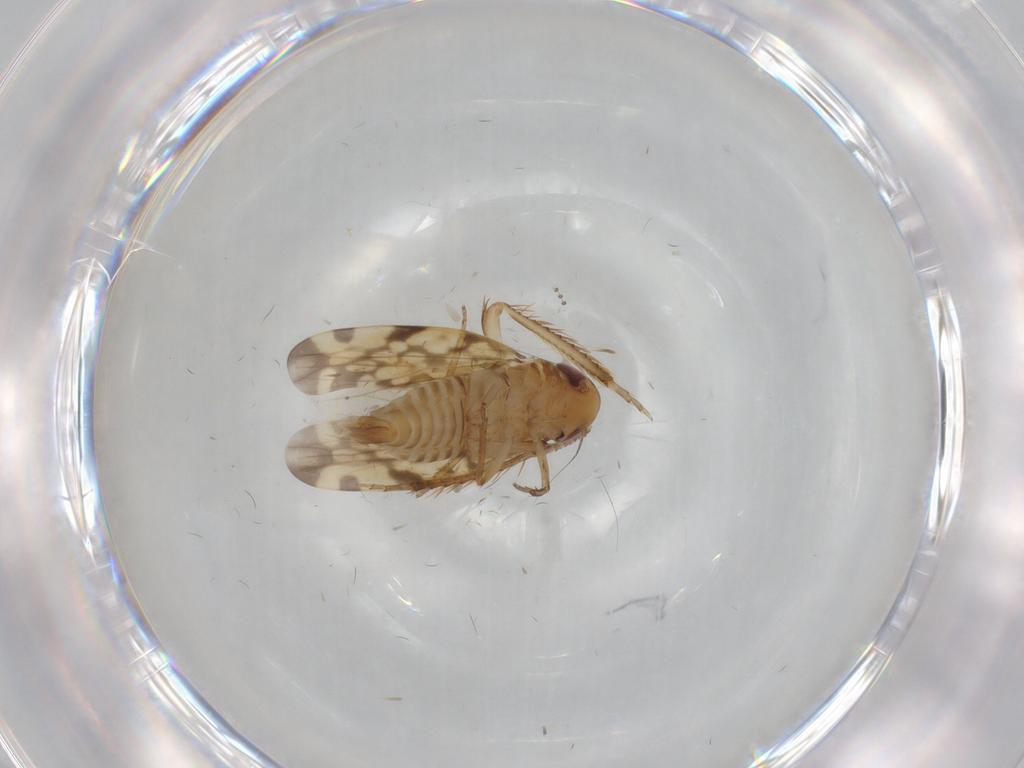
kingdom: Animalia
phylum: Arthropoda
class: Insecta
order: Hemiptera
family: Cicadellidae
